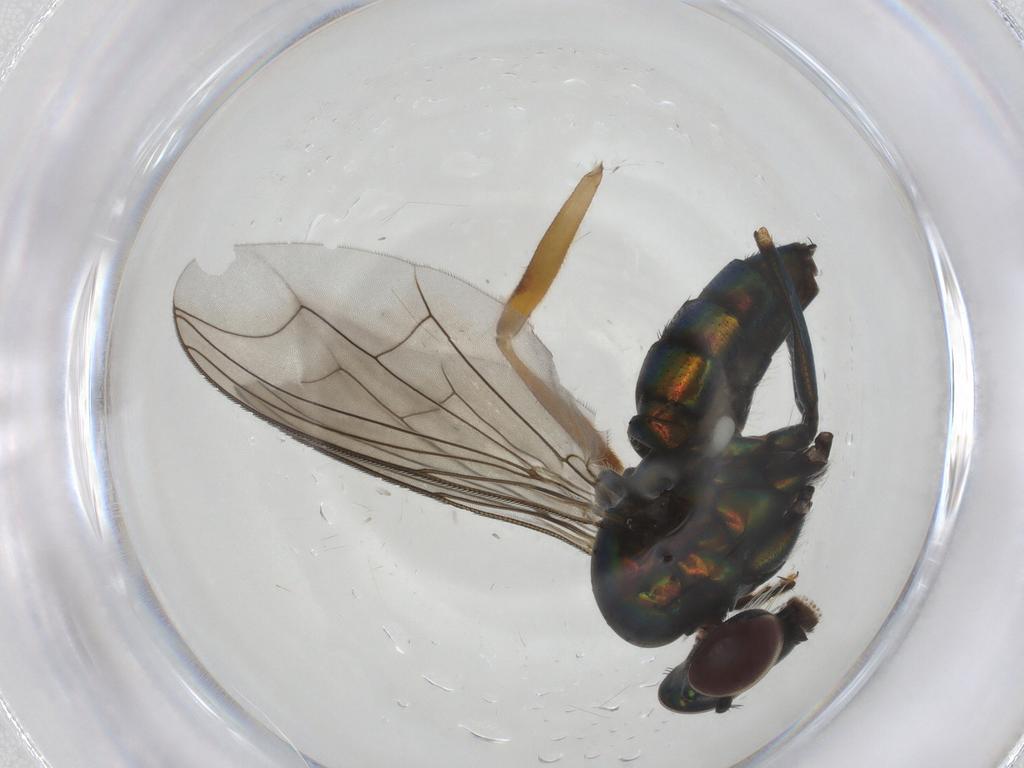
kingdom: Animalia
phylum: Arthropoda
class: Insecta
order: Diptera
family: Dolichopodidae
